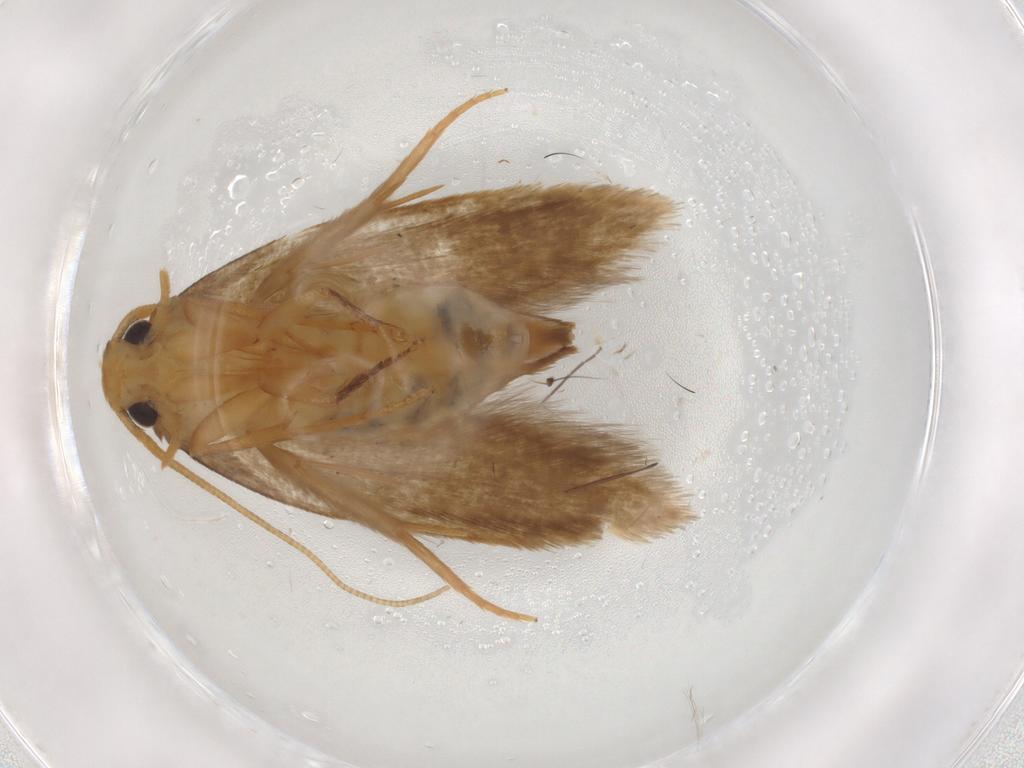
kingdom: Animalia
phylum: Arthropoda
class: Insecta
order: Lepidoptera
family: Tineidae
